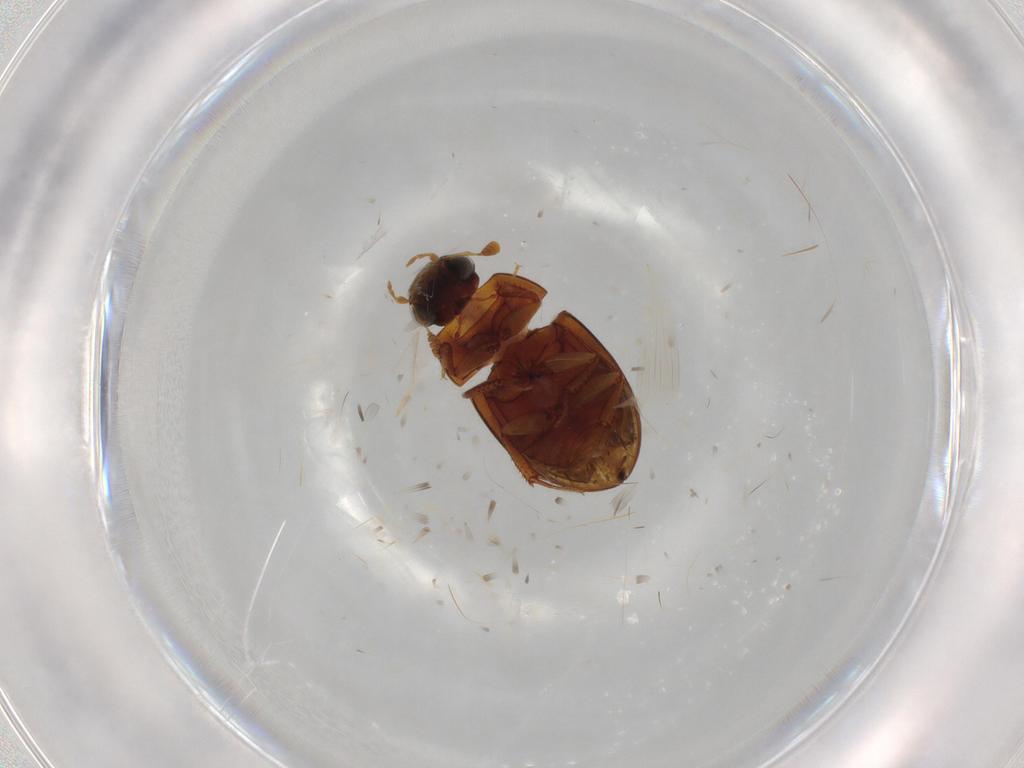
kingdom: Animalia
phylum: Arthropoda
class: Insecta
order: Coleoptera
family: Hydrophilidae
